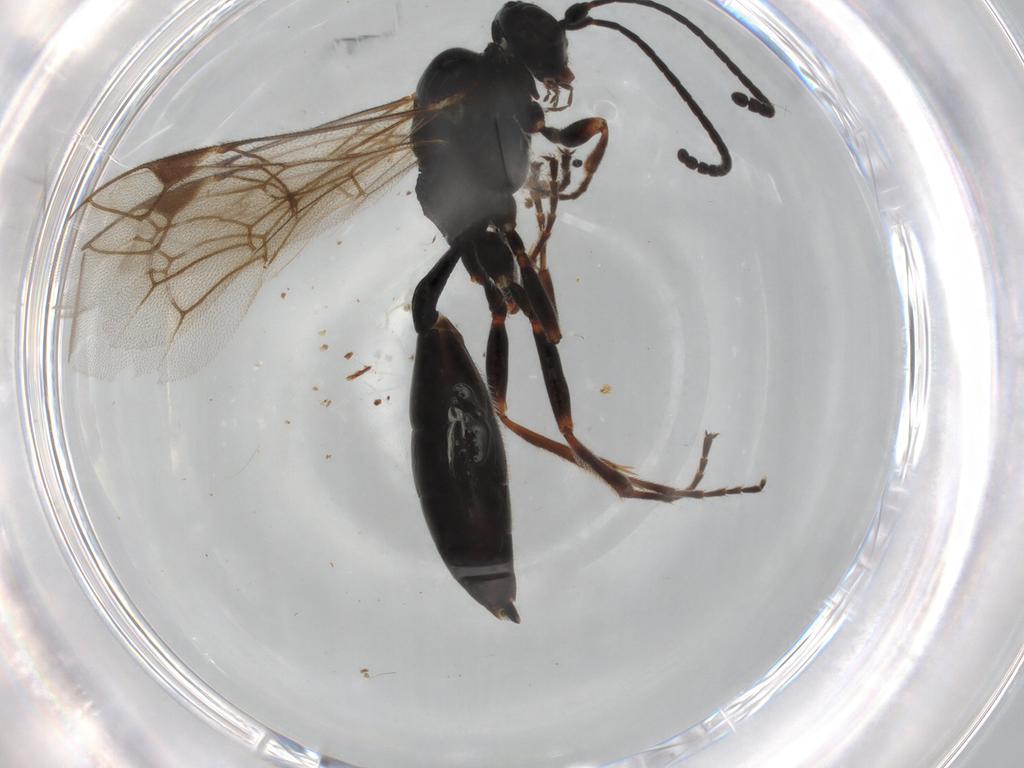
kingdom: Animalia
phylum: Arthropoda
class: Insecta
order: Hymenoptera
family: Ichneumonidae
